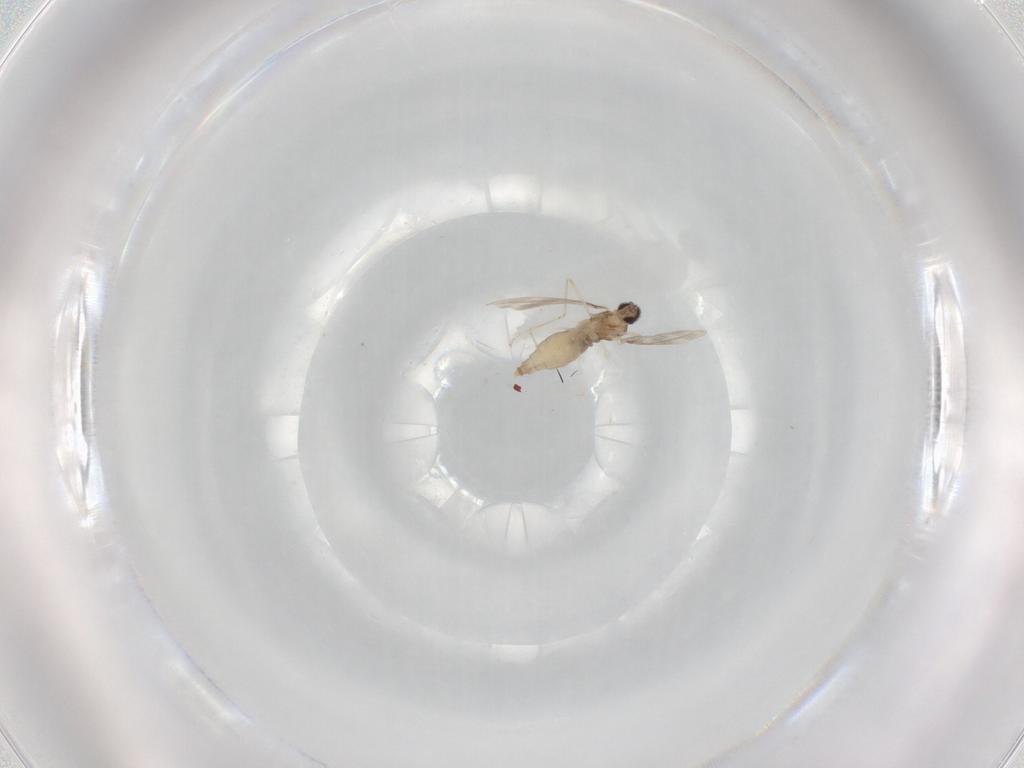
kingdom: Animalia
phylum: Arthropoda
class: Insecta
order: Diptera
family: Cecidomyiidae
